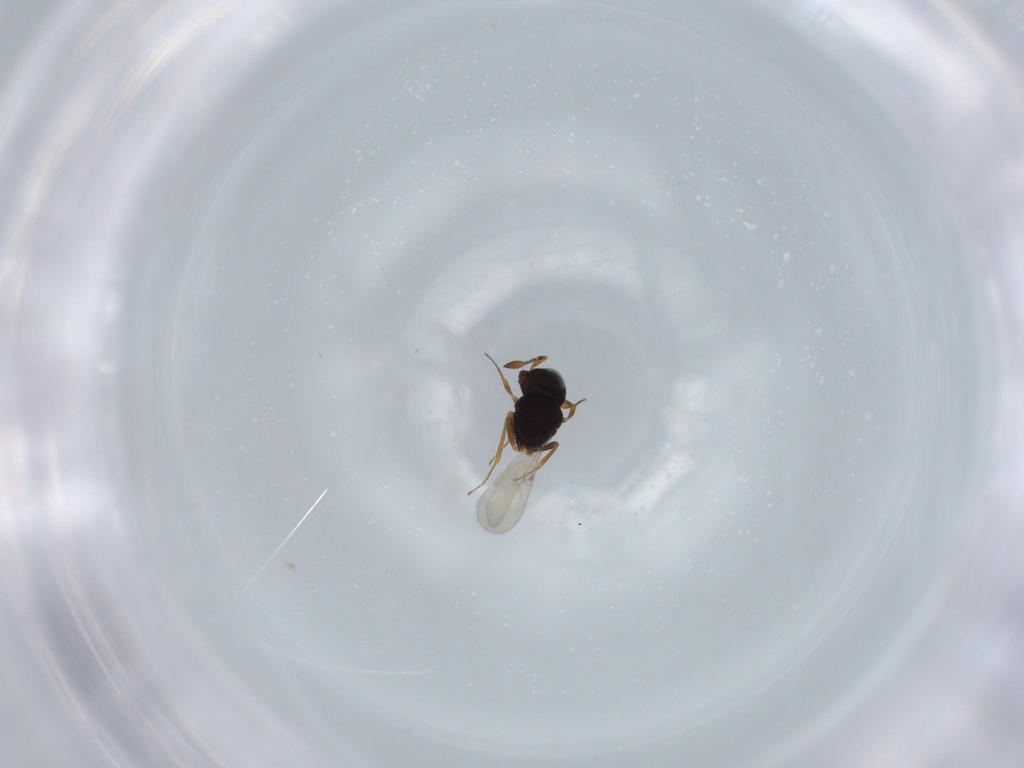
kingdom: Animalia
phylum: Arthropoda
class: Insecta
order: Hymenoptera
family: Scelionidae
